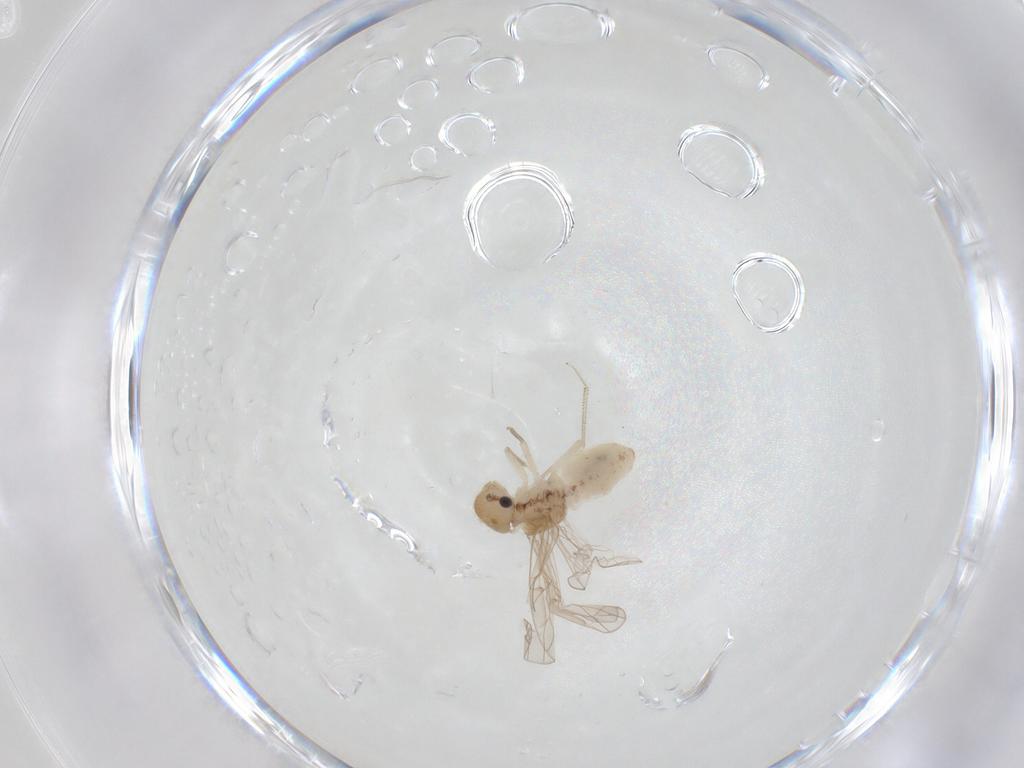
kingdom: Animalia
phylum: Arthropoda
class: Insecta
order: Psocodea
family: Ectopsocidae
